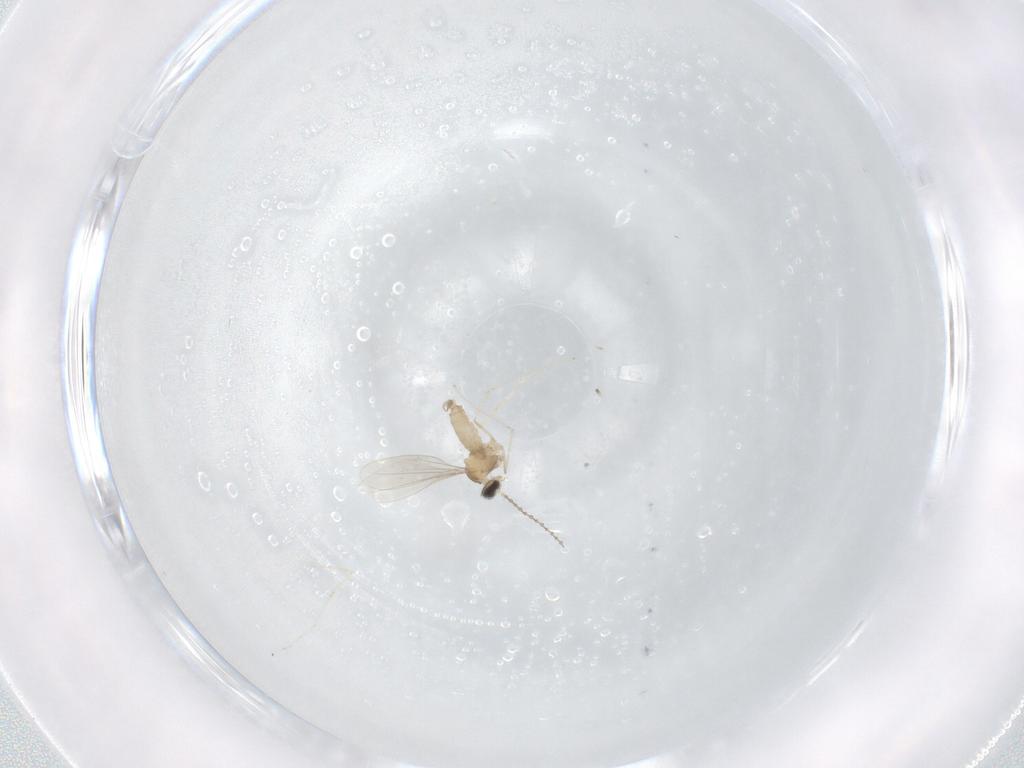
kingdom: Animalia
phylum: Arthropoda
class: Insecta
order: Diptera
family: Cecidomyiidae
